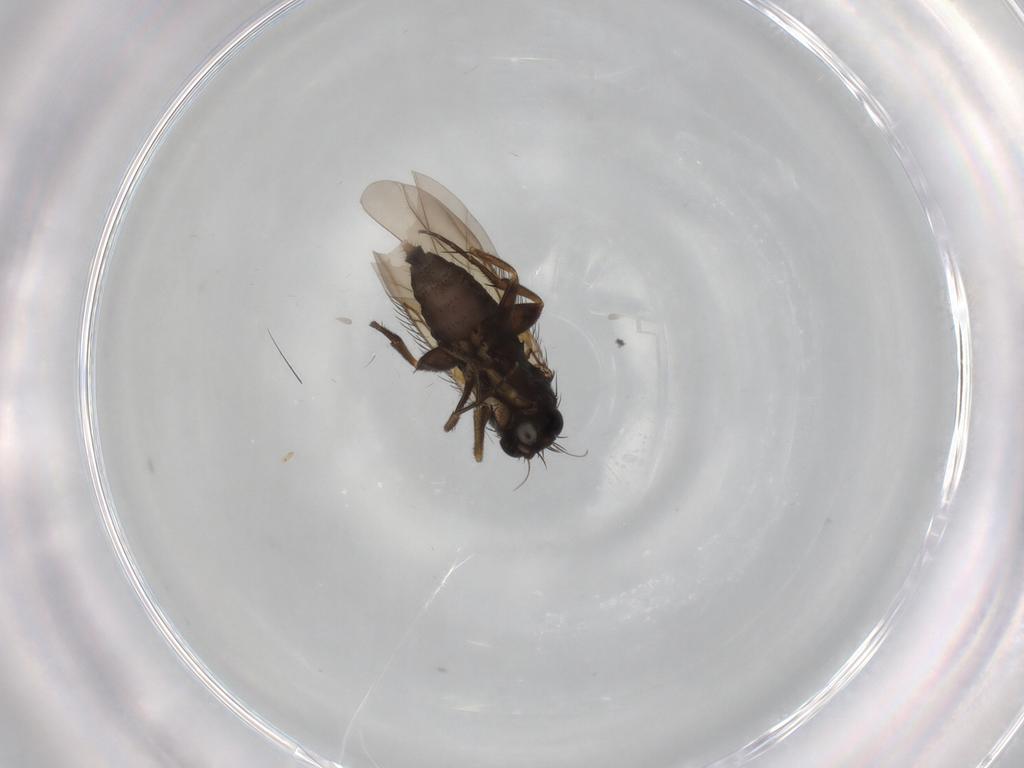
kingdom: Animalia
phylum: Arthropoda
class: Insecta
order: Diptera
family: Phoridae
